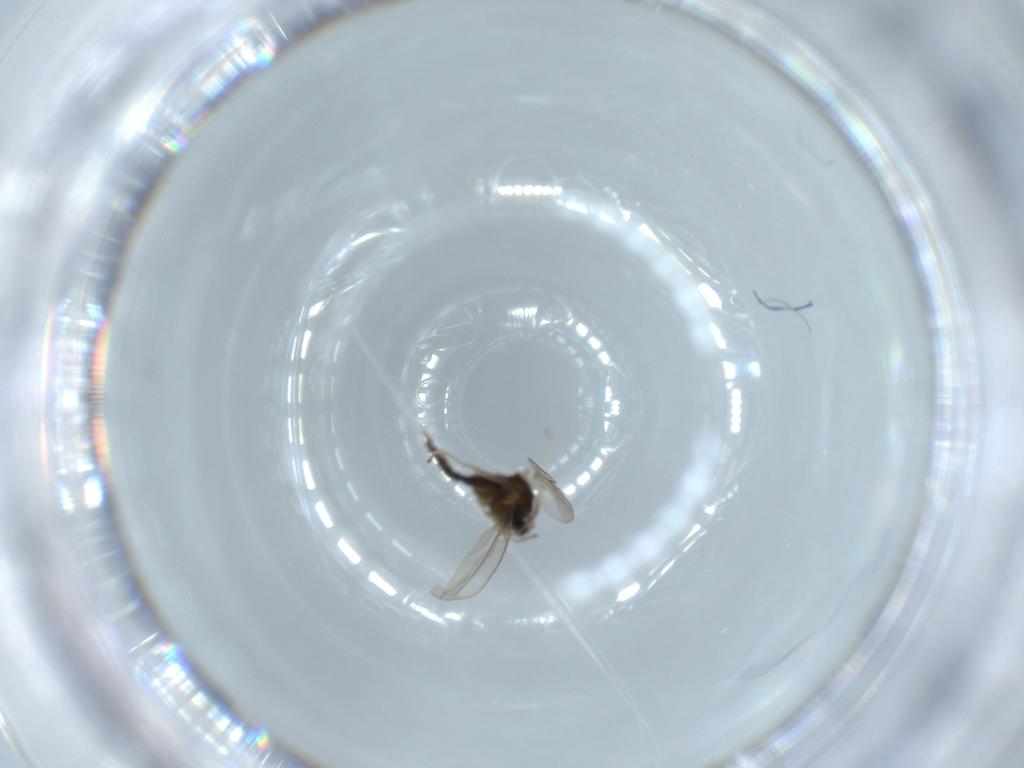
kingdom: Animalia
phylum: Arthropoda
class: Insecta
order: Diptera
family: Cecidomyiidae
